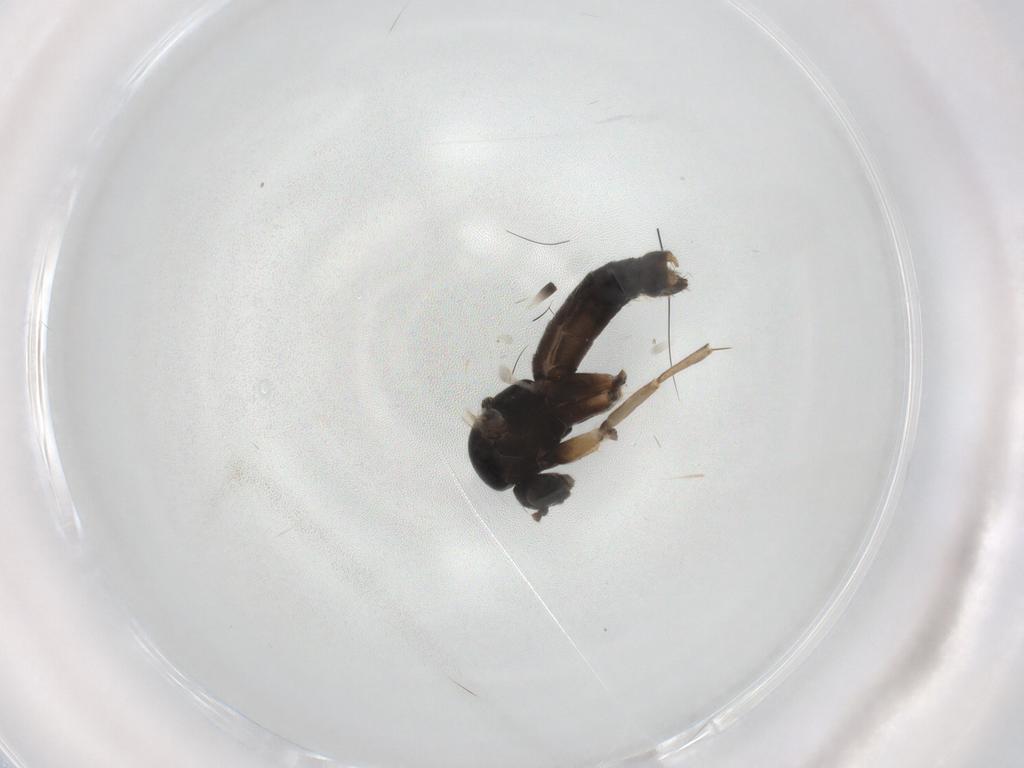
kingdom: Animalia
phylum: Arthropoda
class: Insecta
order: Diptera
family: Mycetophilidae
